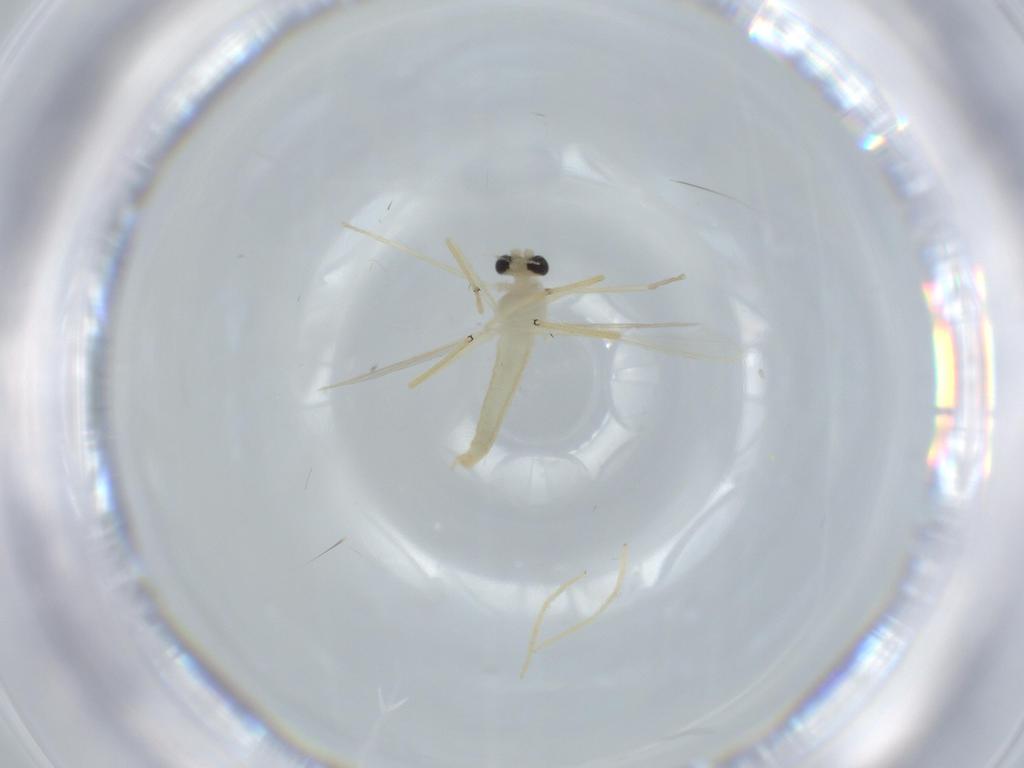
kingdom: Animalia
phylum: Arthropoda
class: Insecta
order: Diptera
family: Chironomidae
